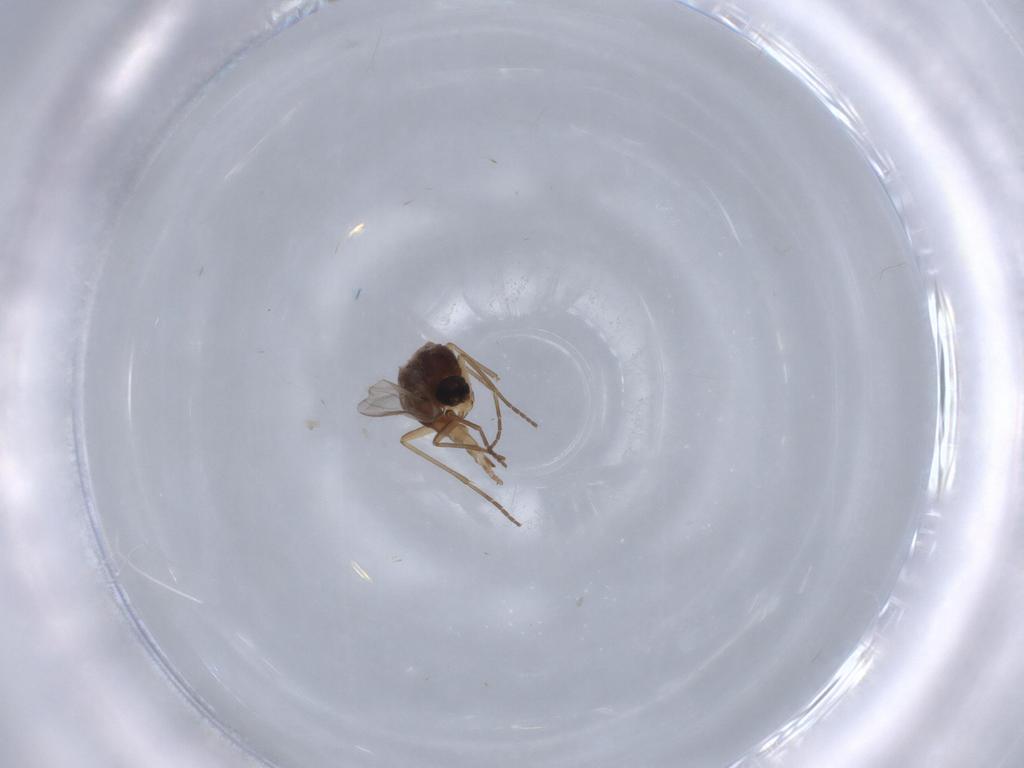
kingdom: Animalia
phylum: Arthropoda
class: Insecta
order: Diptera
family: Sciaridae
